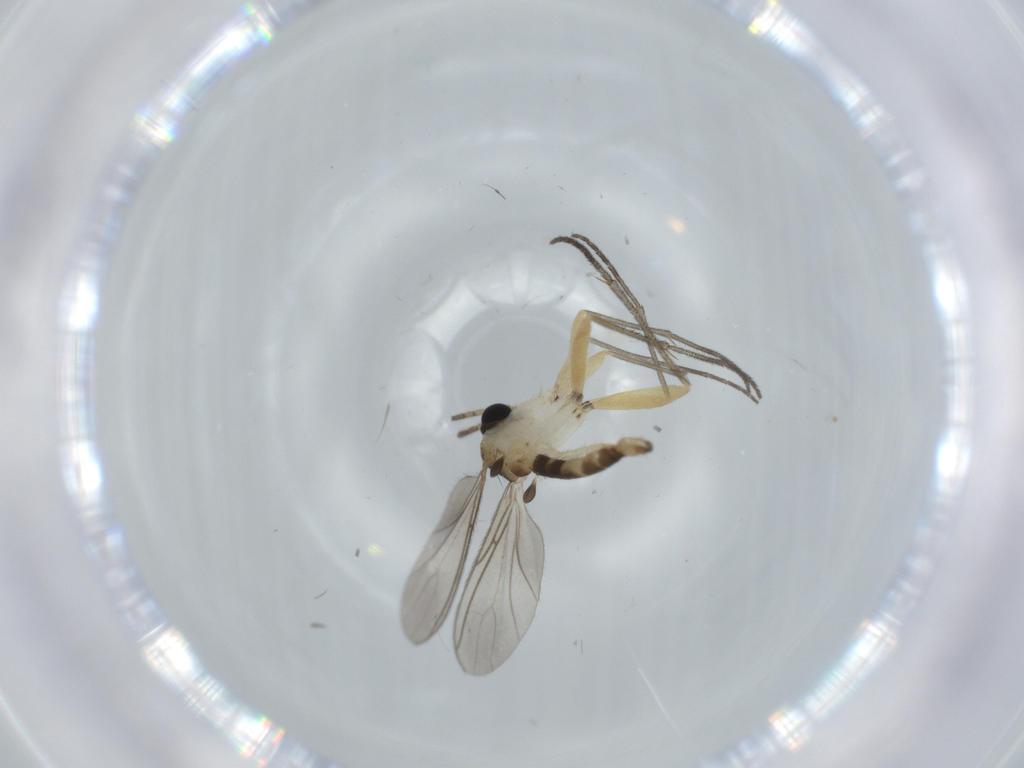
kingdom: Animalia
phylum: Arthropoda
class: Insecta
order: Diptera
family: Sciaridae
